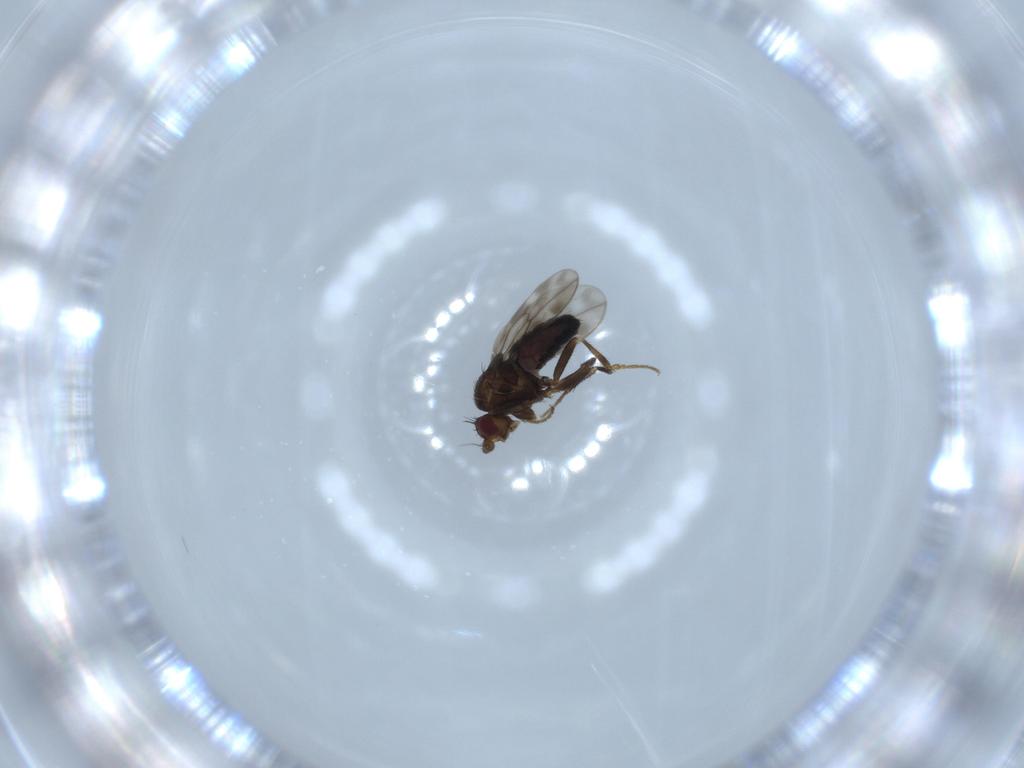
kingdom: Animalia
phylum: Arthropoda
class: Insecta
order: Diptera
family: Sphaeroceridae
